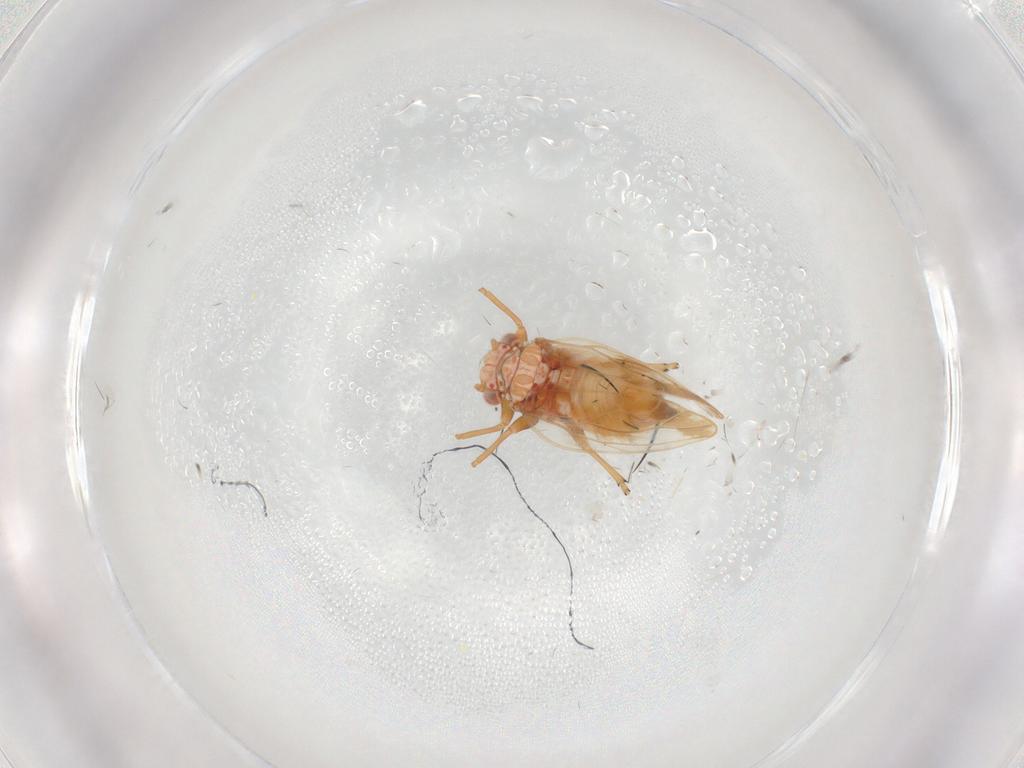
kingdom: Animalia
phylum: Arthropoda
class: Insecta
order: Hemiptera
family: Psyllidae
